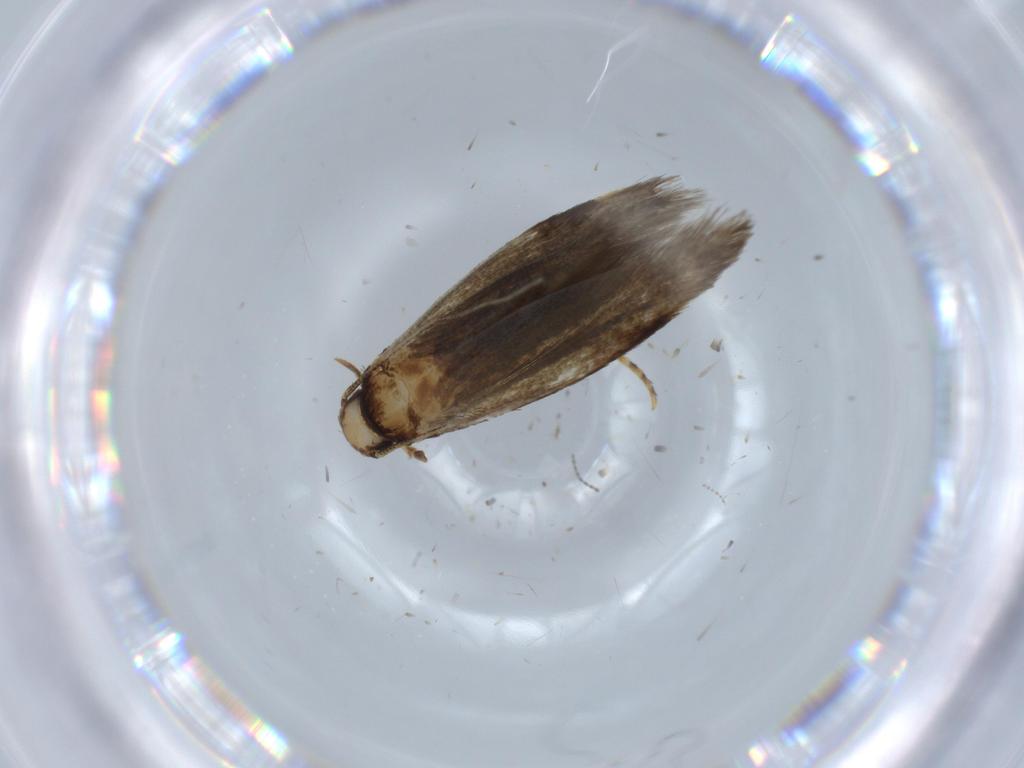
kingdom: Animalia
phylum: Arthropoda
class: Insecta
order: Lepidoptera
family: Tineidae
